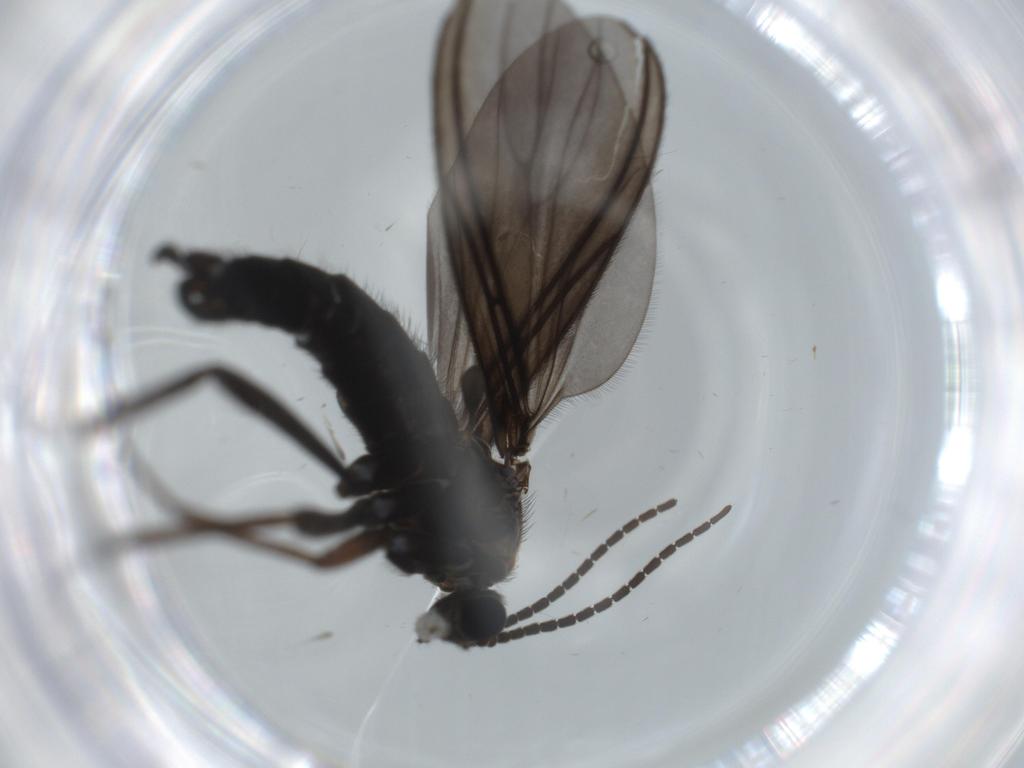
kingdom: Animalia
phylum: Arthropoda
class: Insecta
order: Diptera
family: Sciaridae
